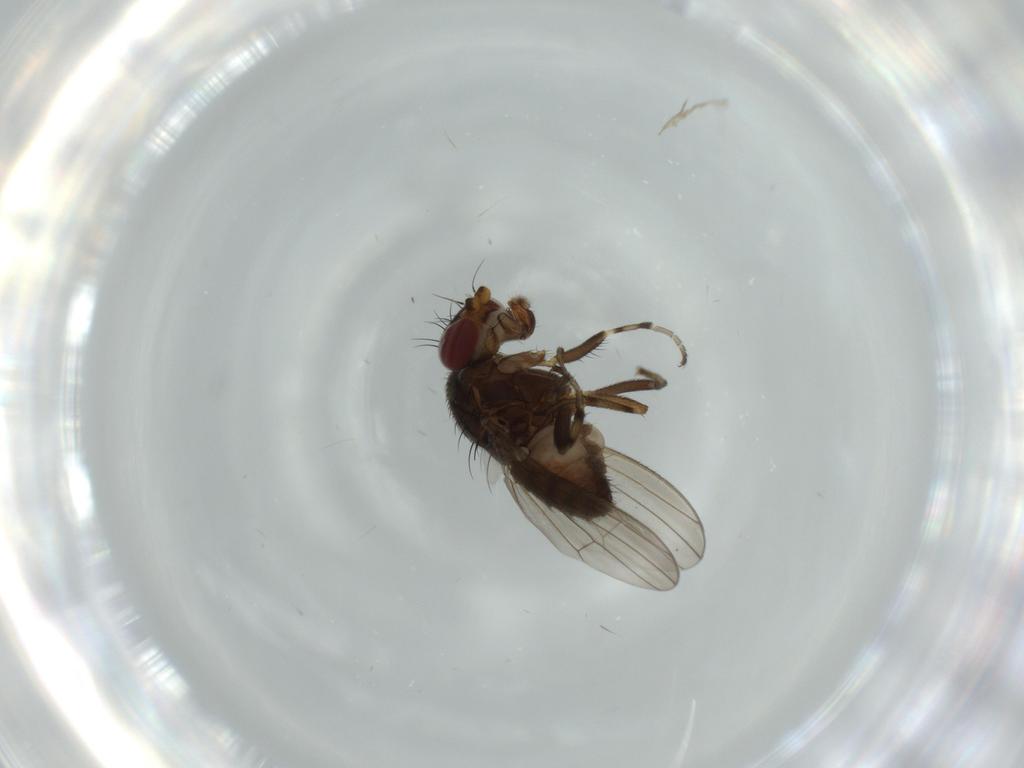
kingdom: Animalia
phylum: Arthropoda
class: Insecta
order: Diptera
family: Heleomyzidae
